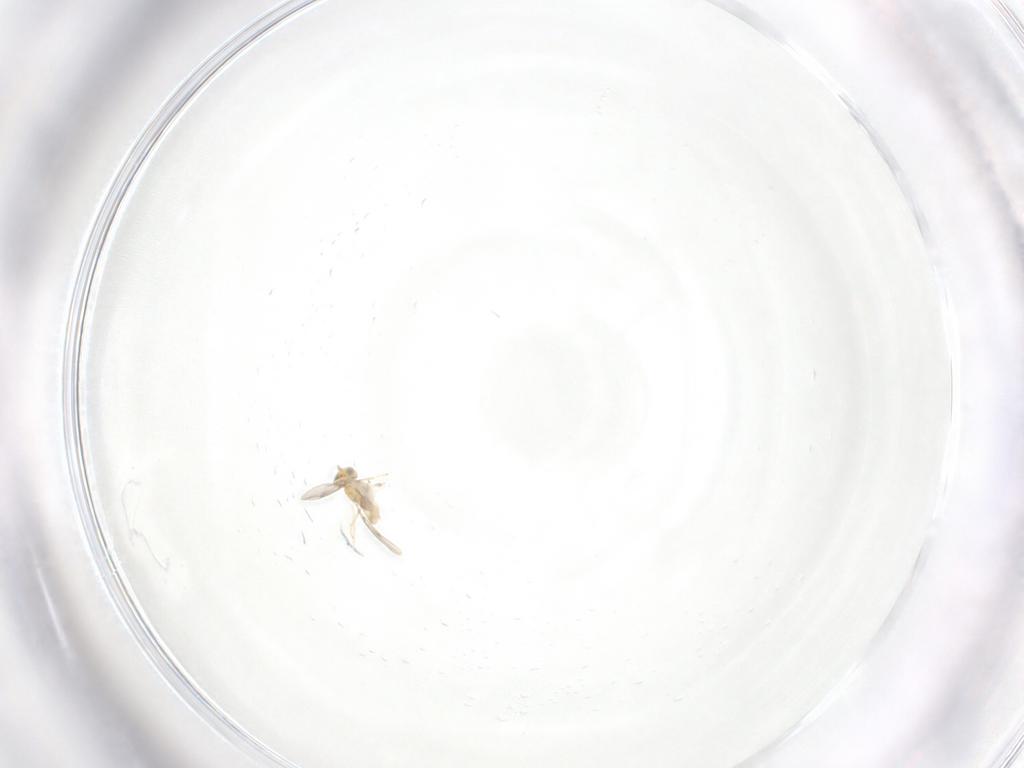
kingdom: Animalia
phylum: Arthropoda
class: Insecta
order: Hymenoptera
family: Aphelinidae
